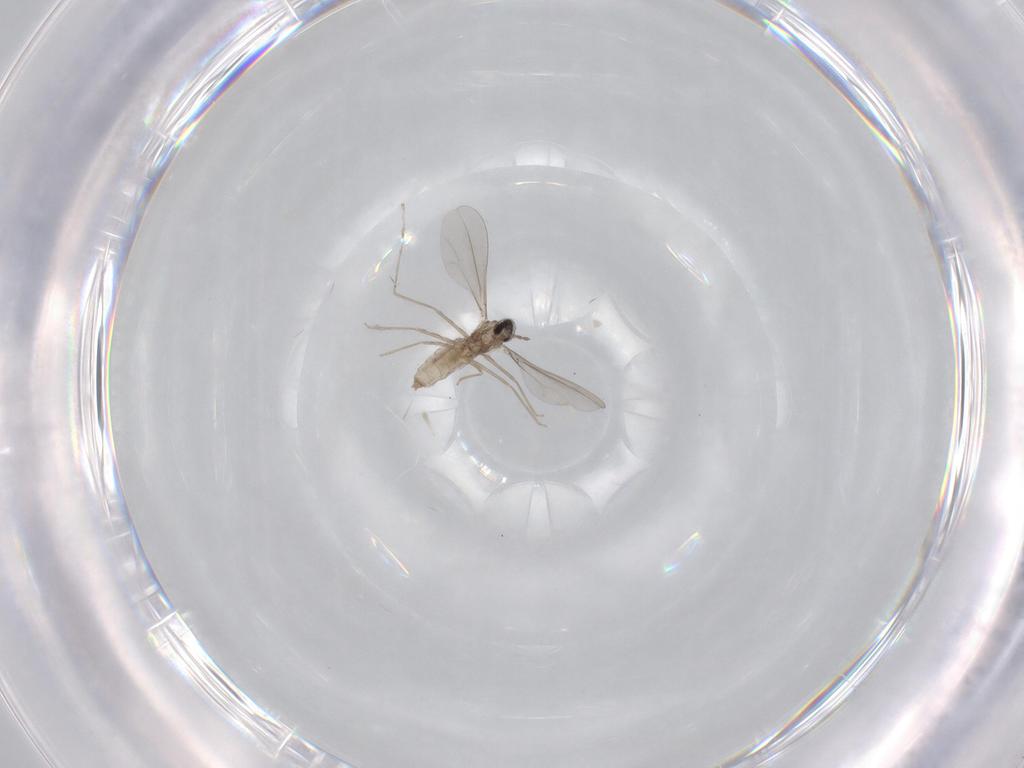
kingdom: Animalia
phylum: Arthropoda
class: Insecta
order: Diptera
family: Cecidomyiidae
